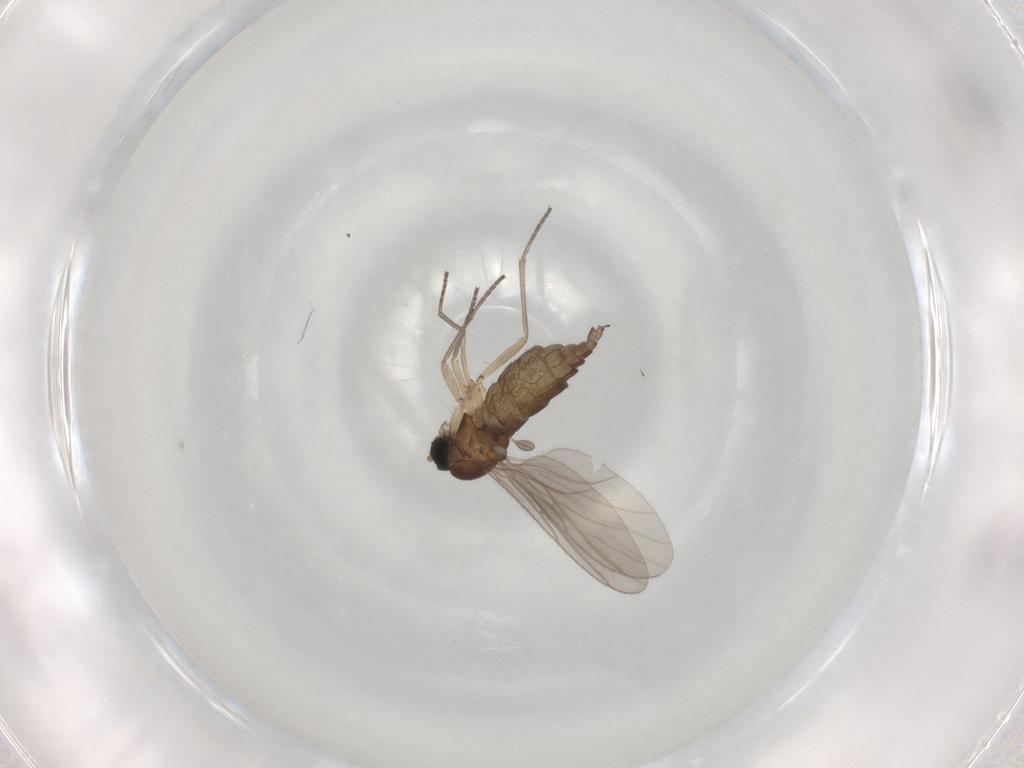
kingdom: Animalia
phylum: Arthropoda
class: Insecta
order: Diptera
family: Sciaridae
